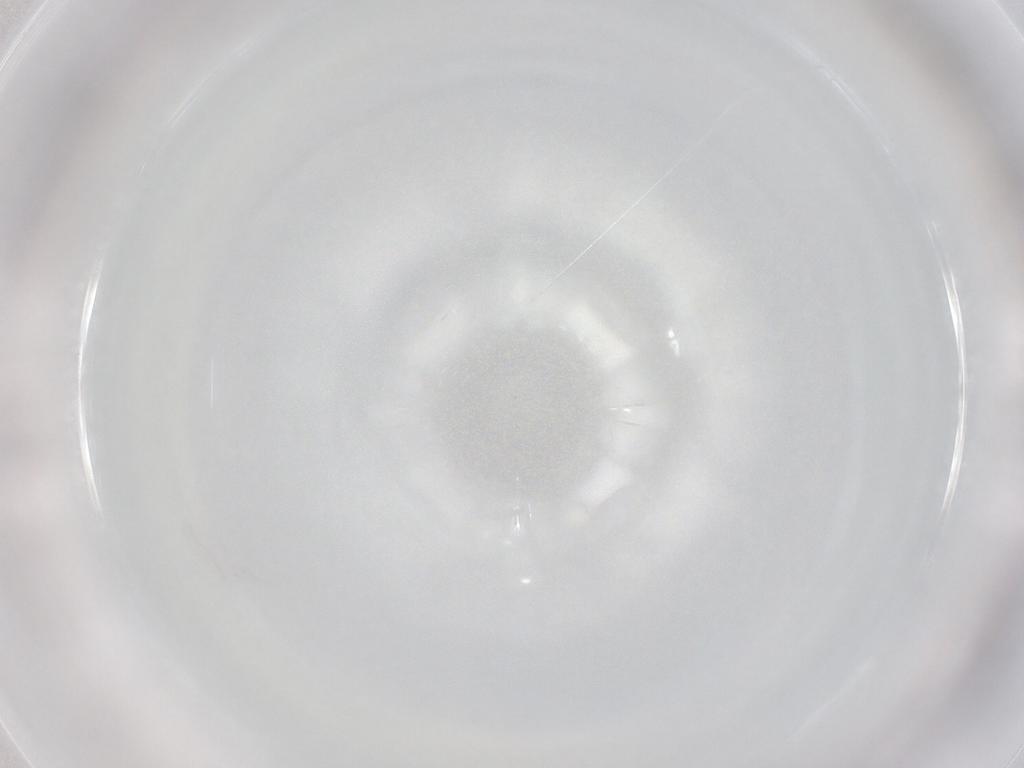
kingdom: Animalia
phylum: Arthropoda
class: Insecta
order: Diptera
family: Ceratopogonidae
